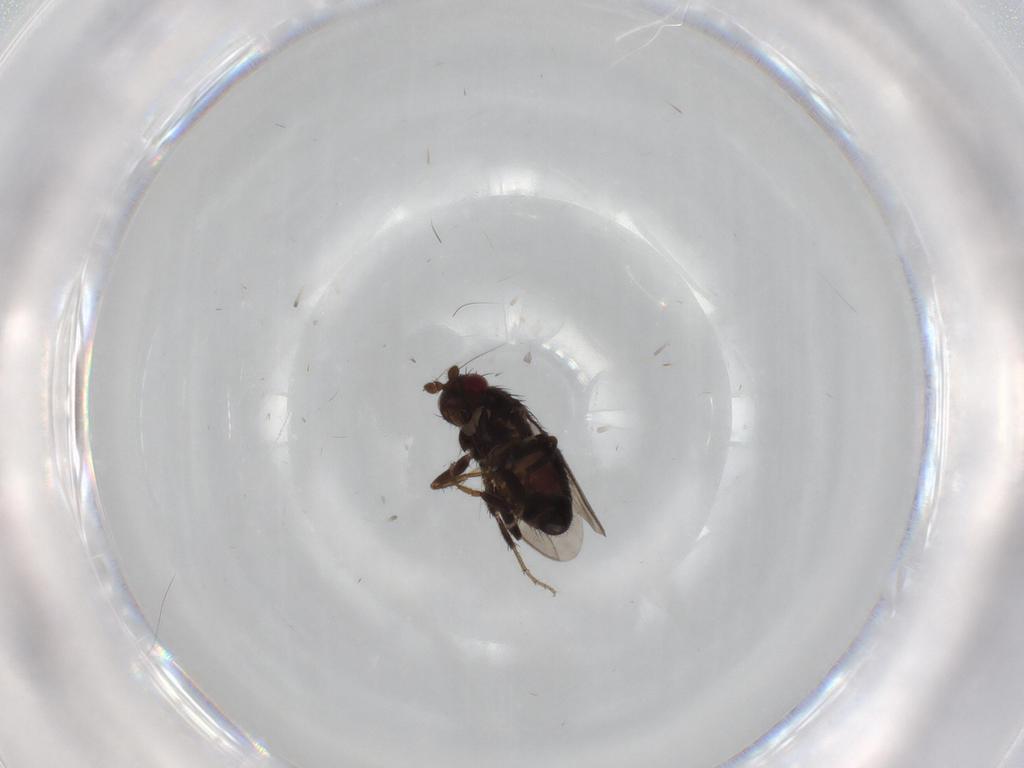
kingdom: Animalia
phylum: Arthropoda
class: Insecta
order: Diptera
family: Sphaeroceridae
